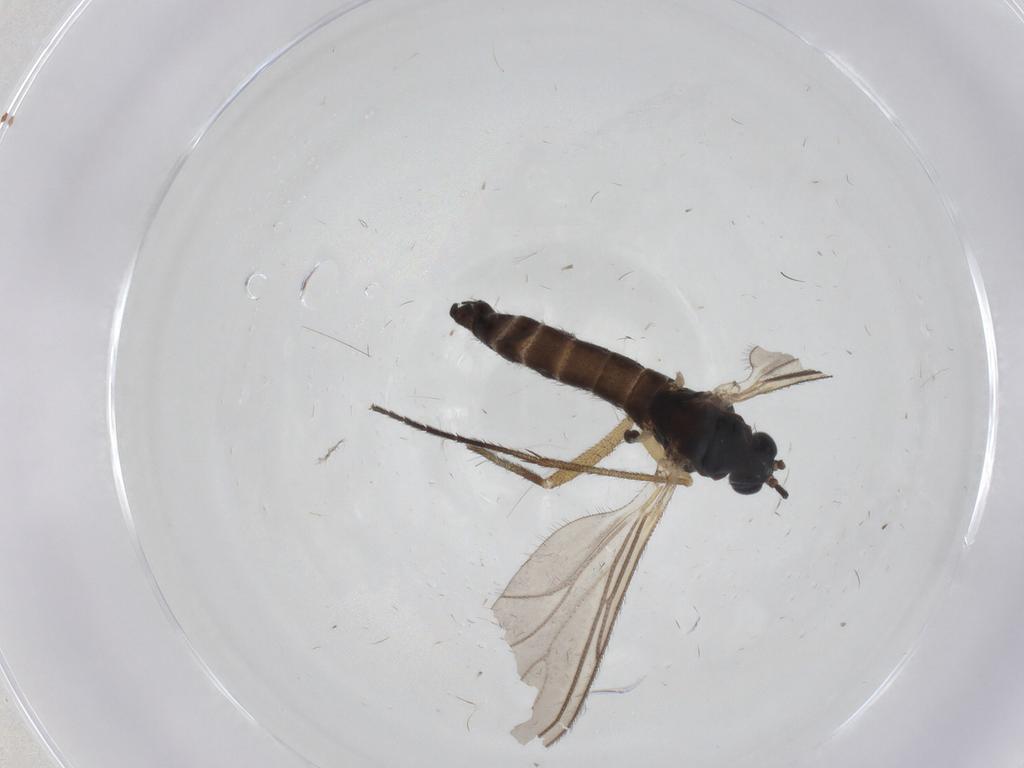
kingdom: Animalia
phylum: Arthropoda
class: Insecta
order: Diptera
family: Sciaridae
